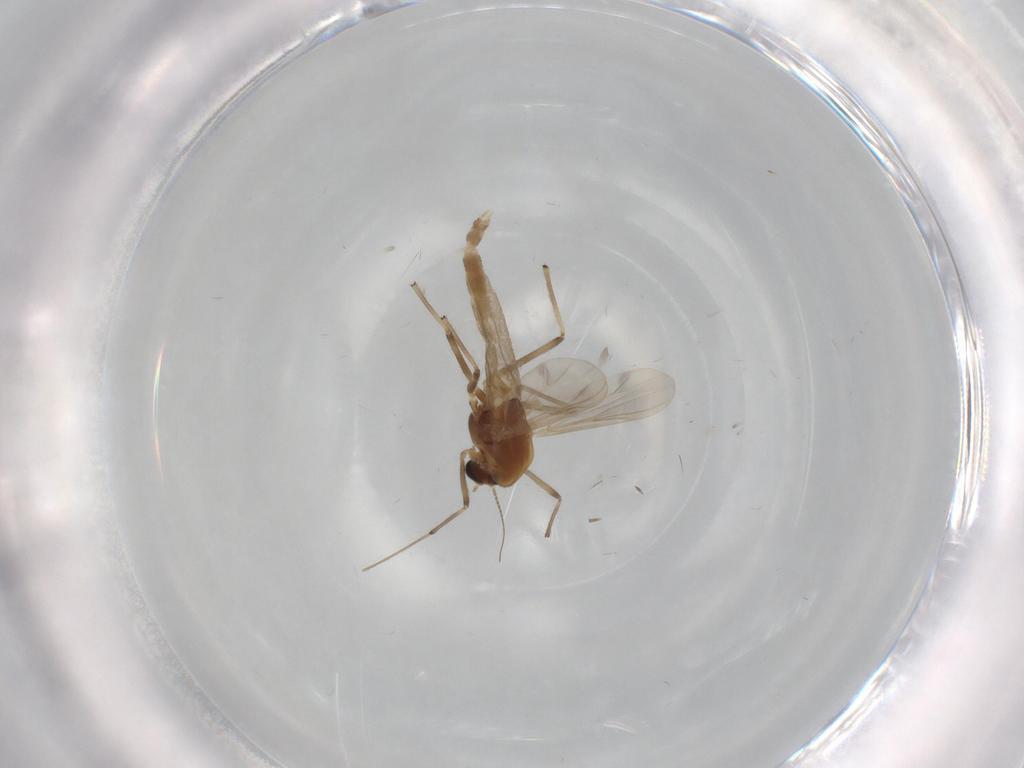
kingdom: Animalia
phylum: Arthropoda
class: Insecta
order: Diptera
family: Chironomidae
